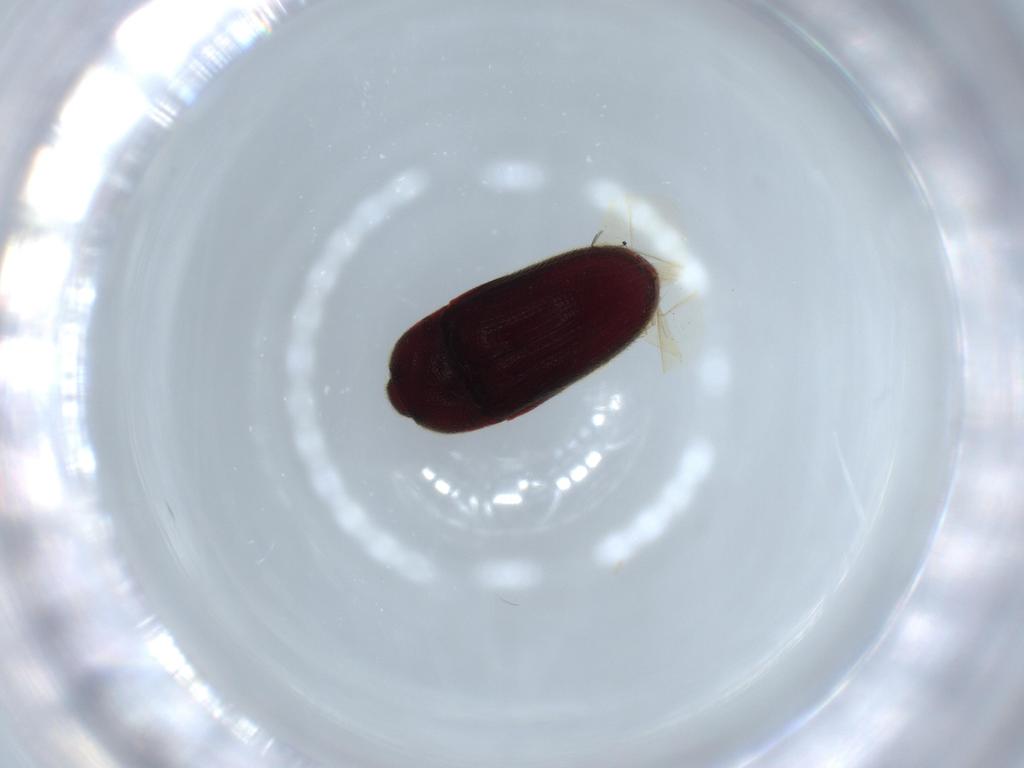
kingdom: Animalia
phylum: Arthropoda
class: Insecta
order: Coleoptera
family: Throscidae
